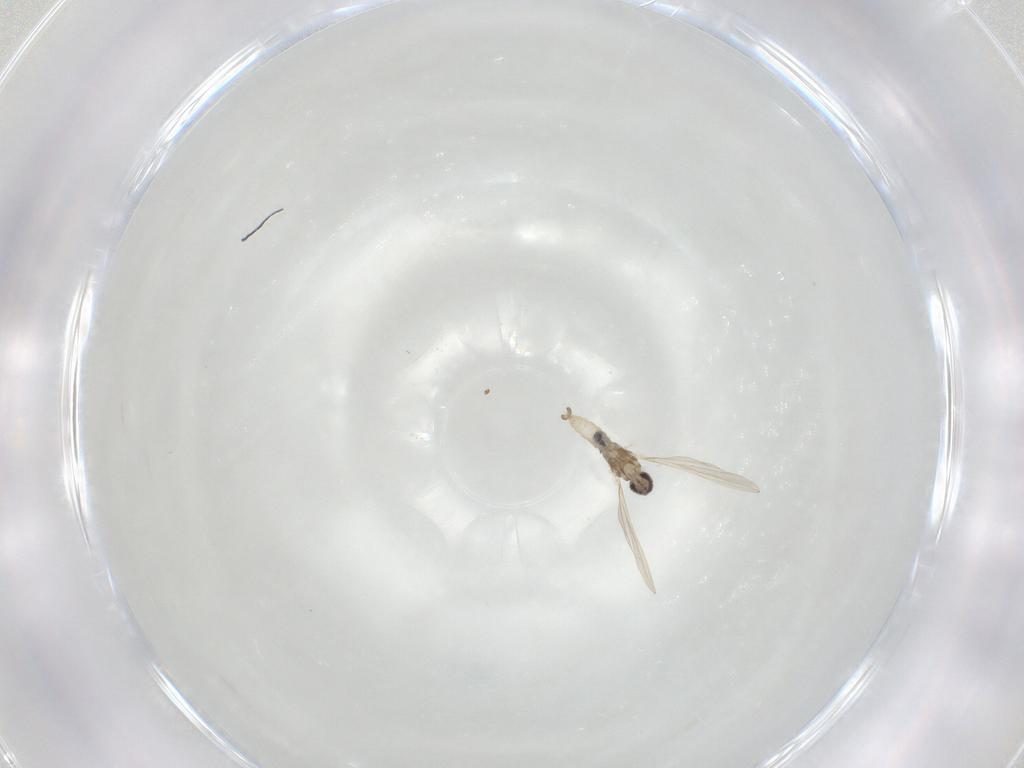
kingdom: Animalia
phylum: Arthropoda
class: Insecta
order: Diptera
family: Cecidomyiidae
